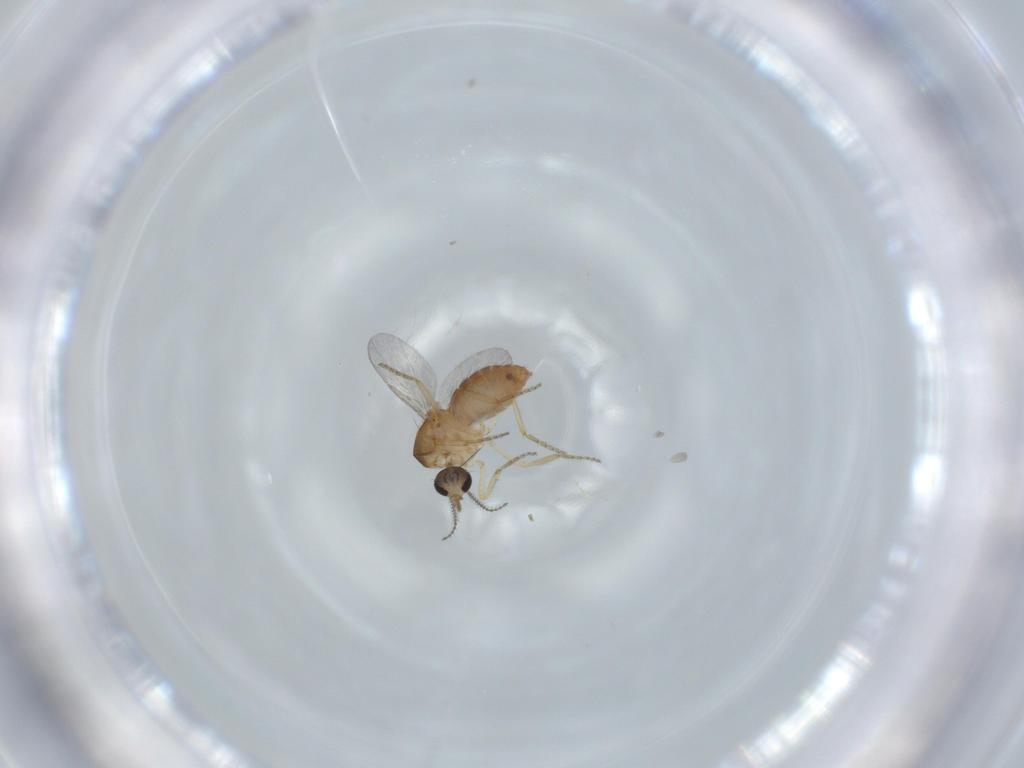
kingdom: Animalia
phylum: Arthropoda
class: Insecta
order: Diptera
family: Ceratopogonidae
